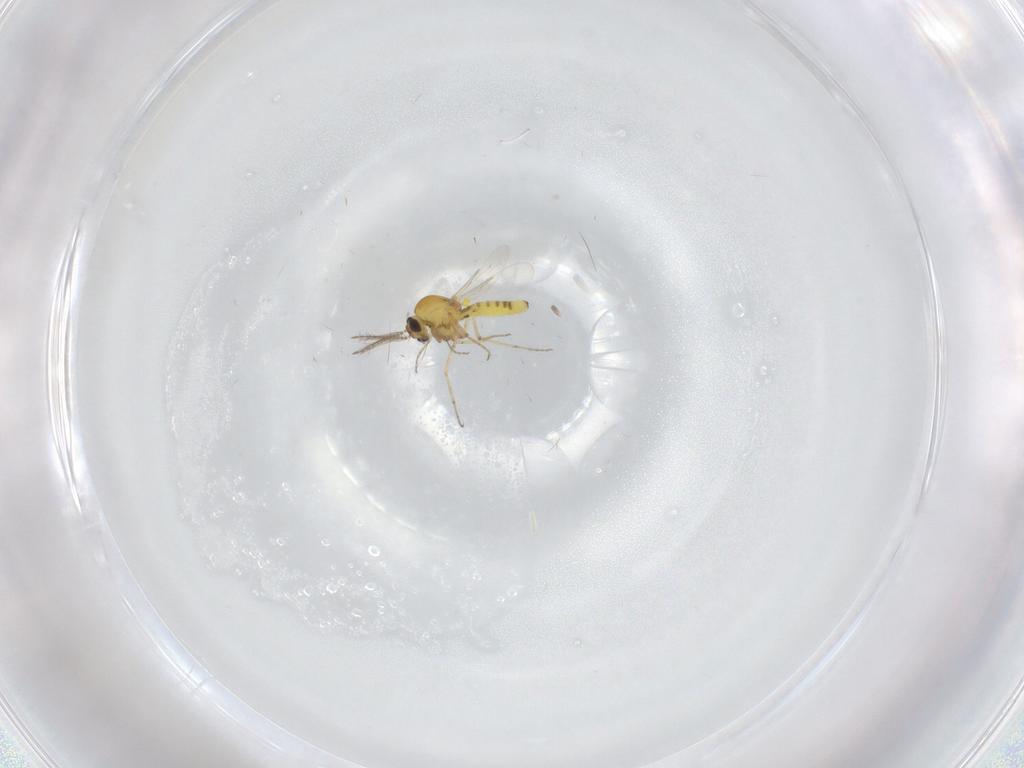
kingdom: Animalia
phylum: Arthropoda
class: Insecta
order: Diptera
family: Ceratopogonidae
